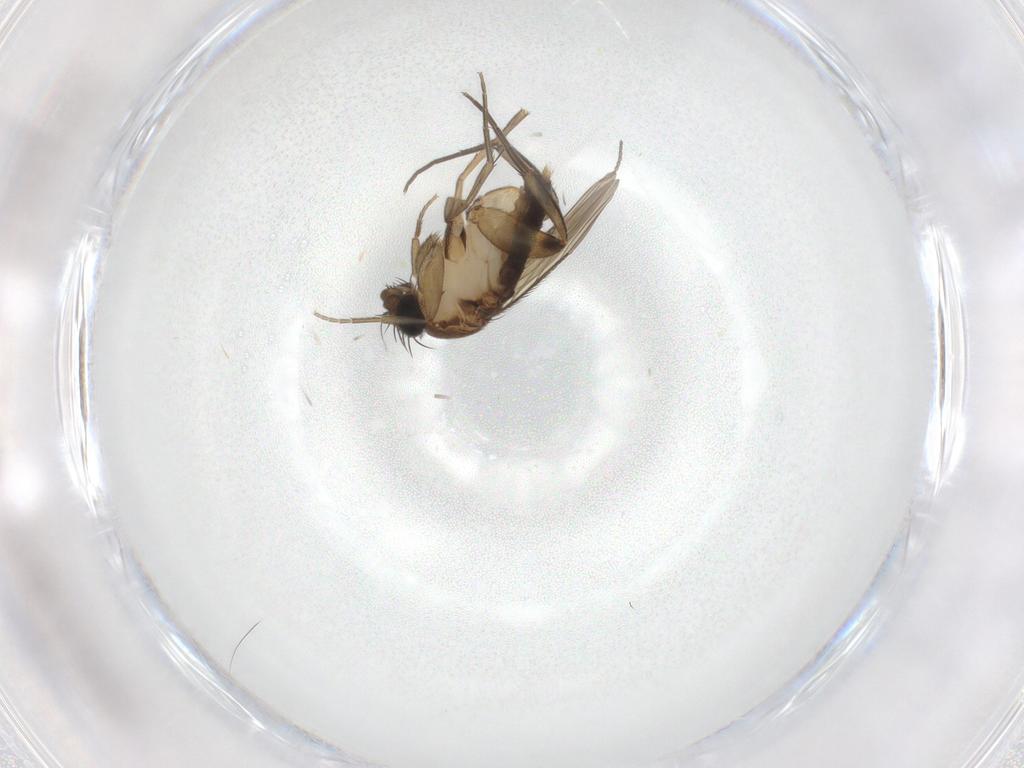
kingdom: Animalia
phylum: Arthropoda
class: Insecta
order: Diptera
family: Phoridae
